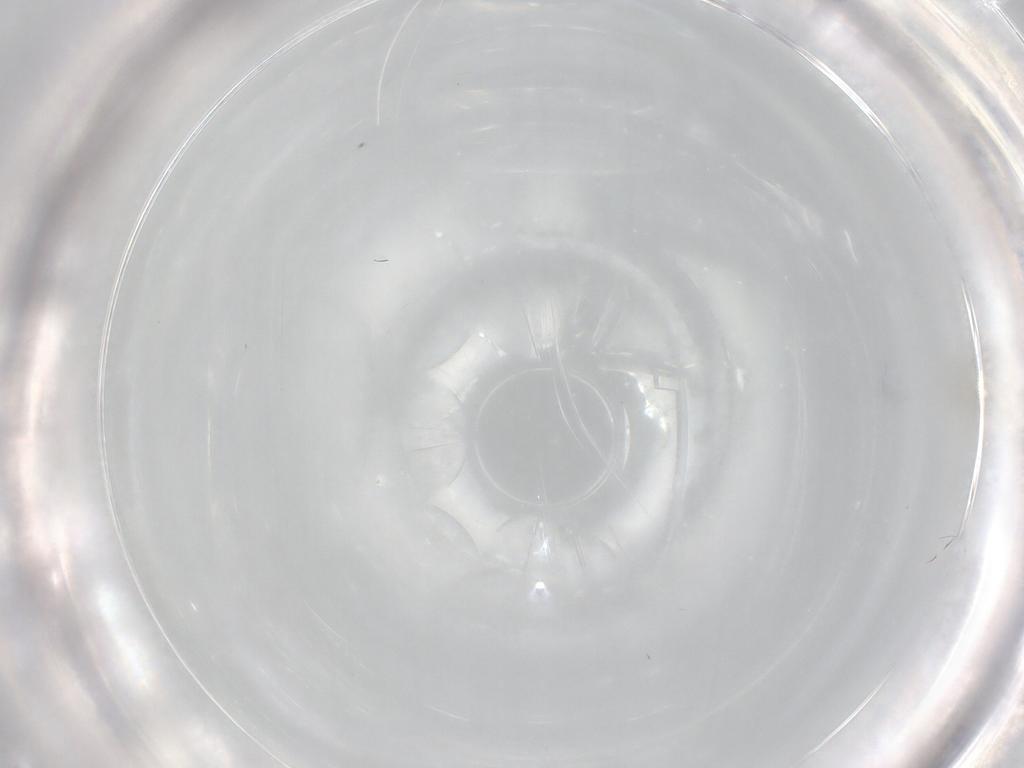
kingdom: Animalia
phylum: Arthropoda
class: Insecta
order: Diptera
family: Cecidomyiidae
